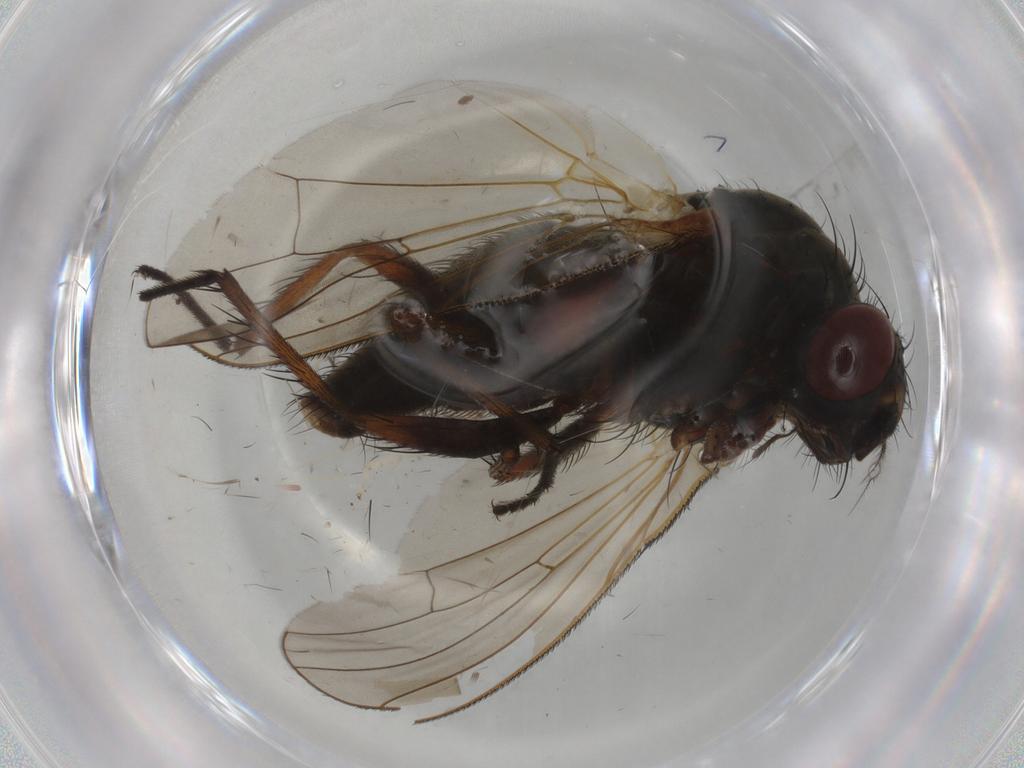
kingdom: Animalia
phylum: Arthropoda
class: Insecta
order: Diptera
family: Anthomyiidae
